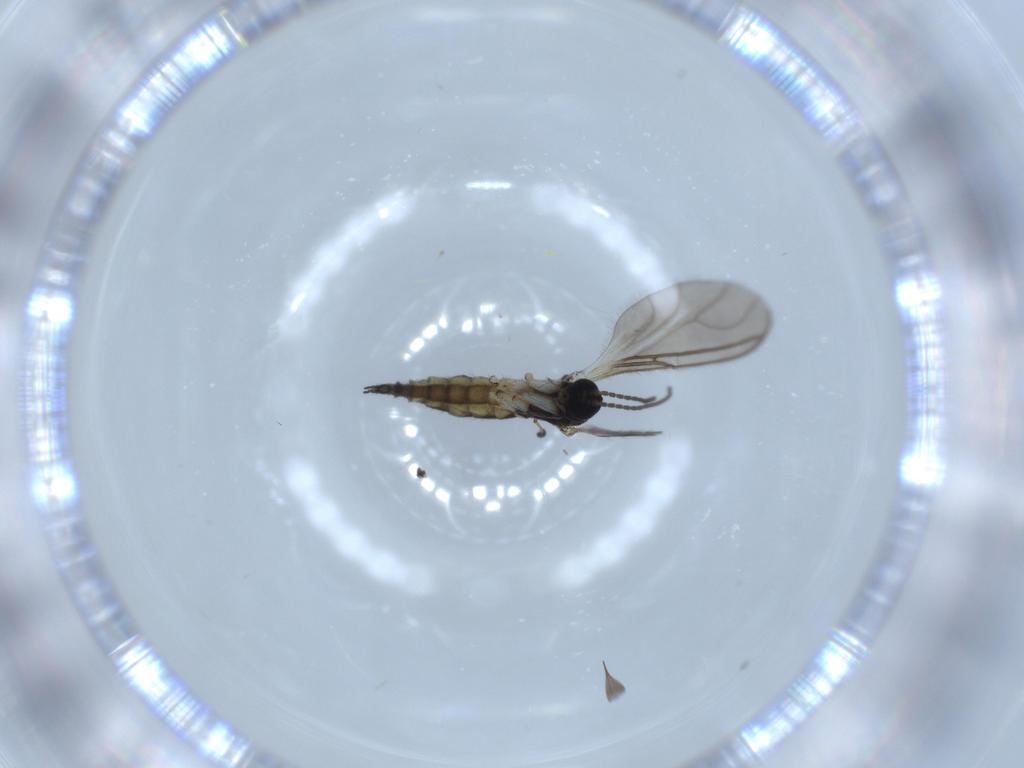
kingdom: Animalia
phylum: Arthropoda
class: Insecta
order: Diptera
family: Sciaridae
